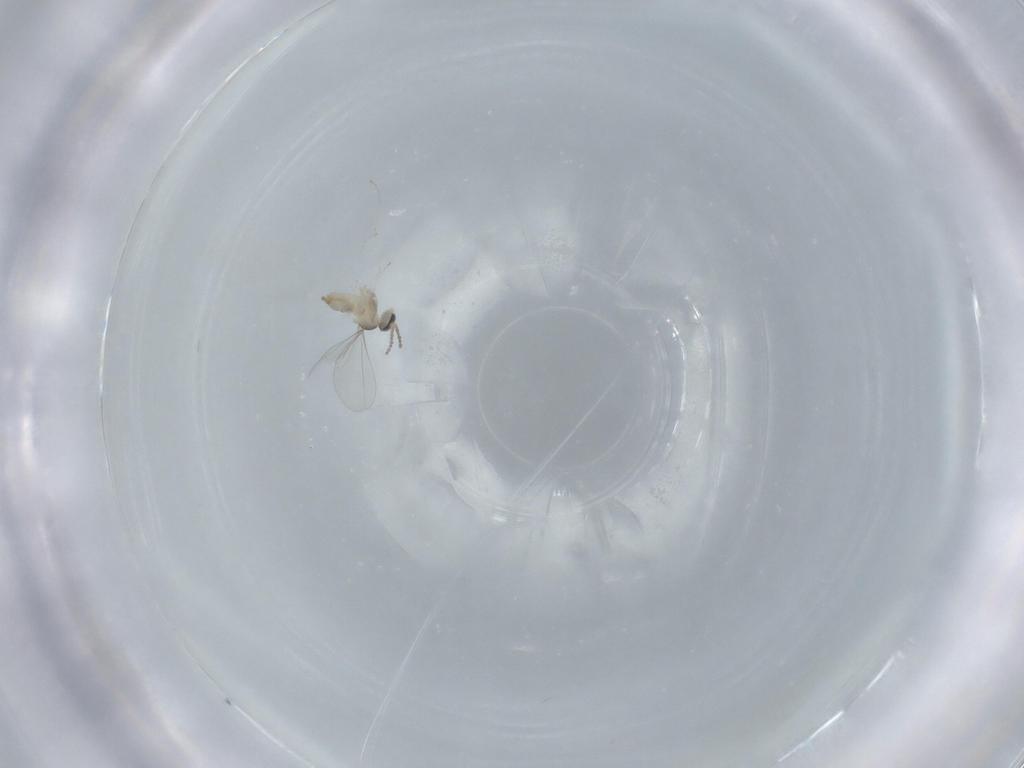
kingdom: Animalia
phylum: Arthropoda
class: Insecta
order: Diptera
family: Cecidomyiidae
